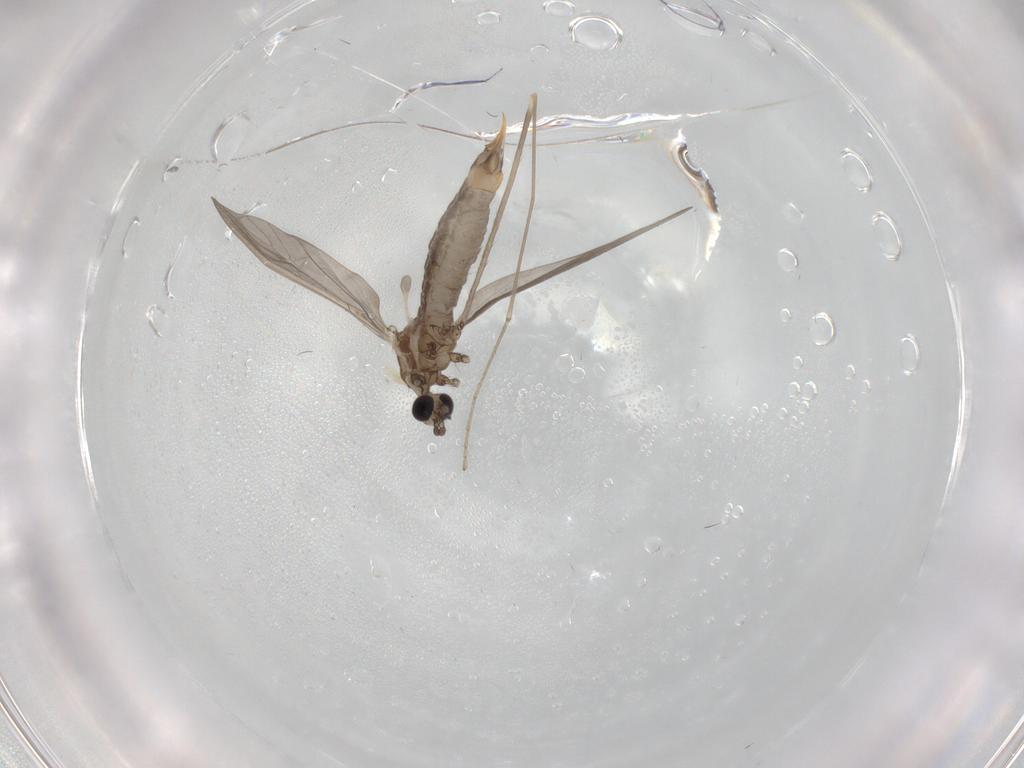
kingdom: Animalia
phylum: Arthropoda
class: Insecta
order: Diptera
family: Limoniidae
